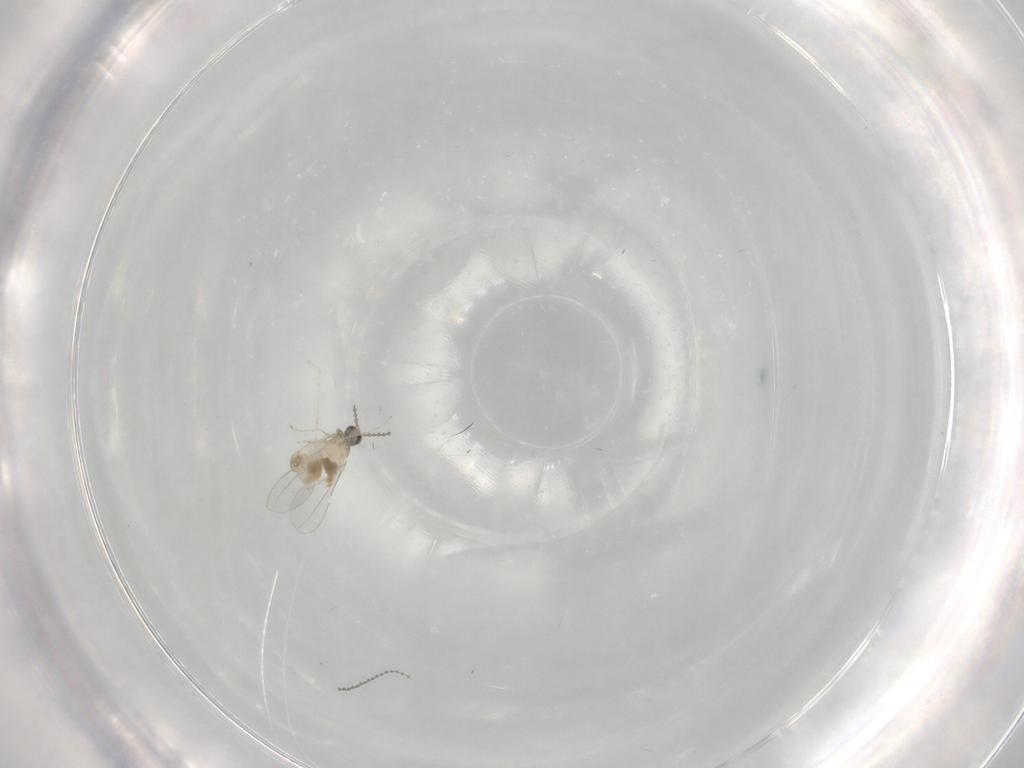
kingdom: Animalia
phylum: Arthropoda
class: Insecta
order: Diptera
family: Cecidomyiidae
